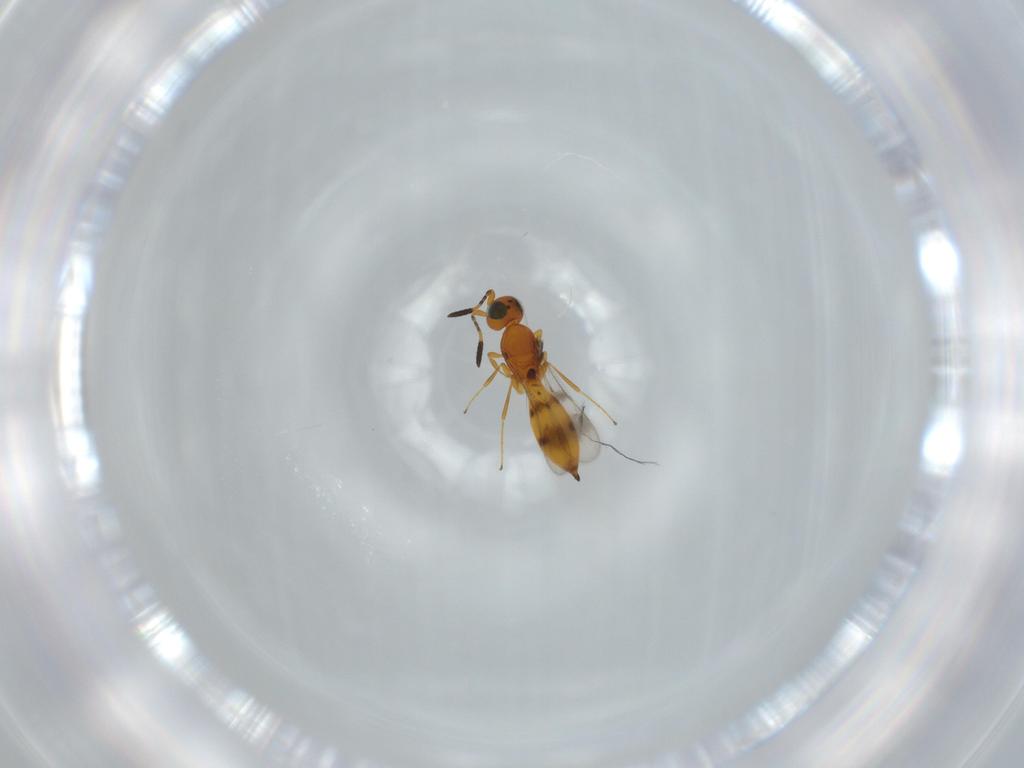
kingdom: Animalia
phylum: Arthropoda
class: Insecta
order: Hymenoptera
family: Scelionidae
